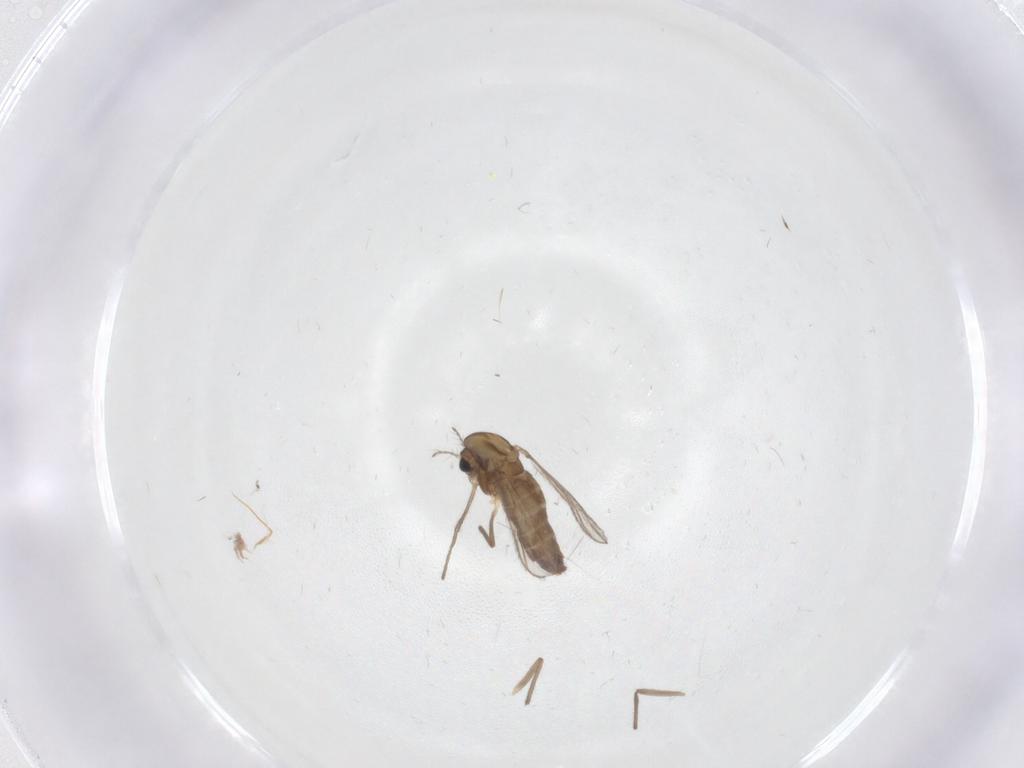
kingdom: Animalia
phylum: Arthropoda
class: Insecta
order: Diptera
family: Chironomidae
